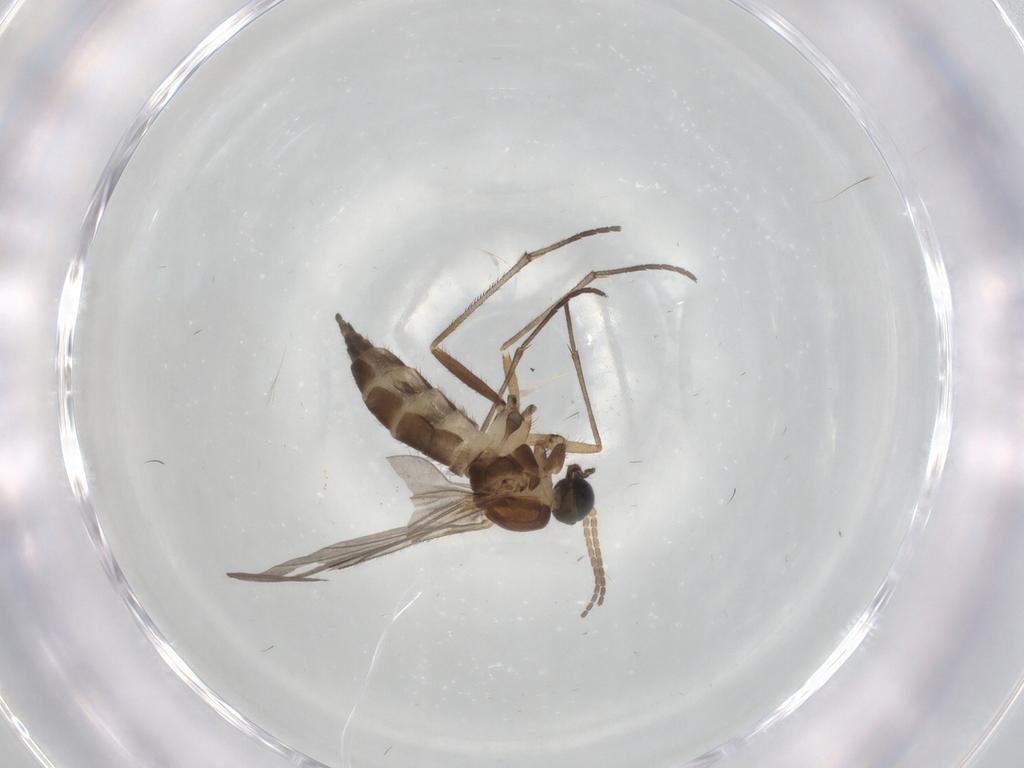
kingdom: Animalia
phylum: Arthropoda
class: Insecta
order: Diptera
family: Sciaridae
